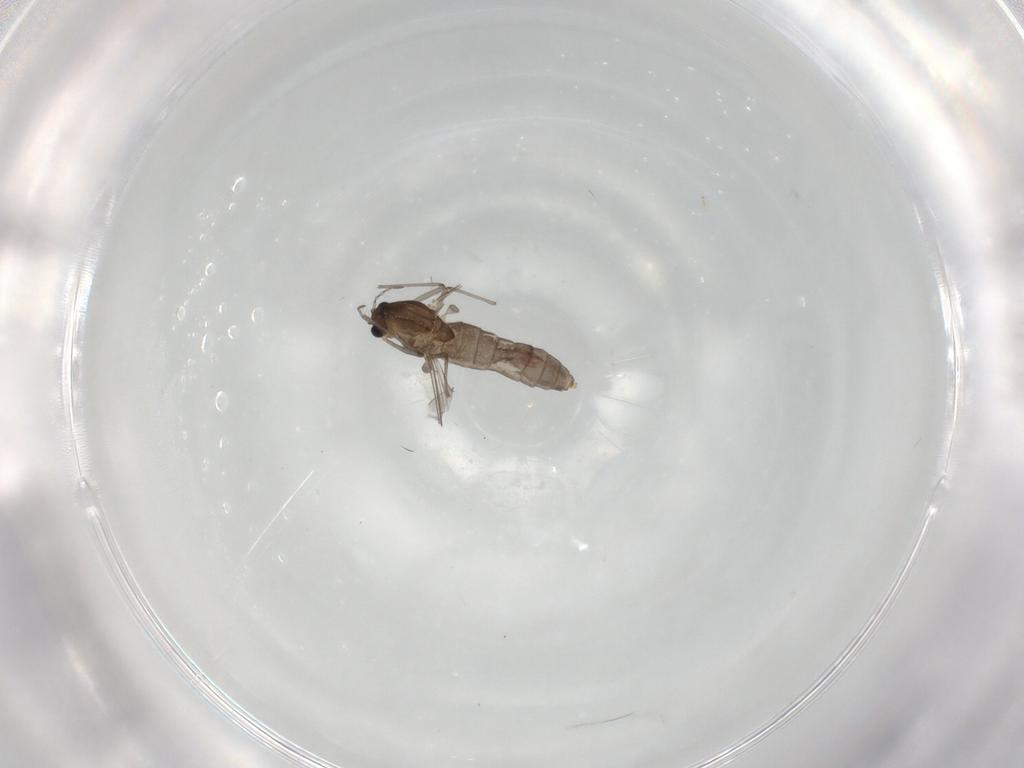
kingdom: Animalia
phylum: Arthropoda
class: Insecta
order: Diptera
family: Chironomidae
